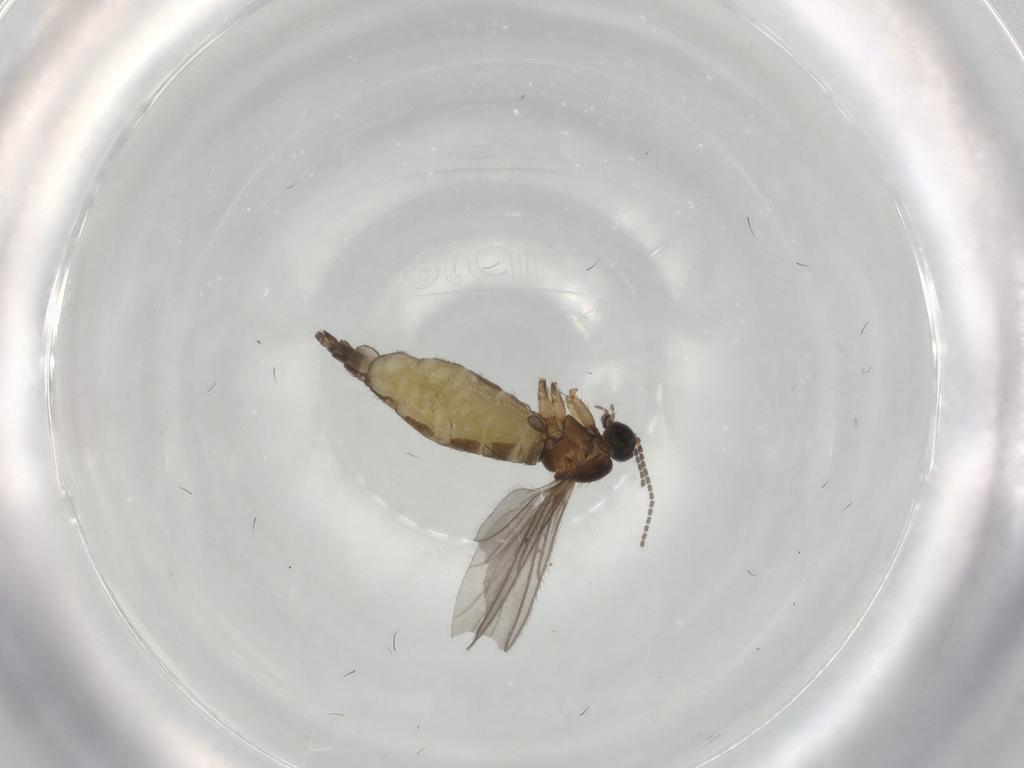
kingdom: Animalia
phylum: Arthropoda
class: Insecta
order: Diptera
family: Sciaridae
